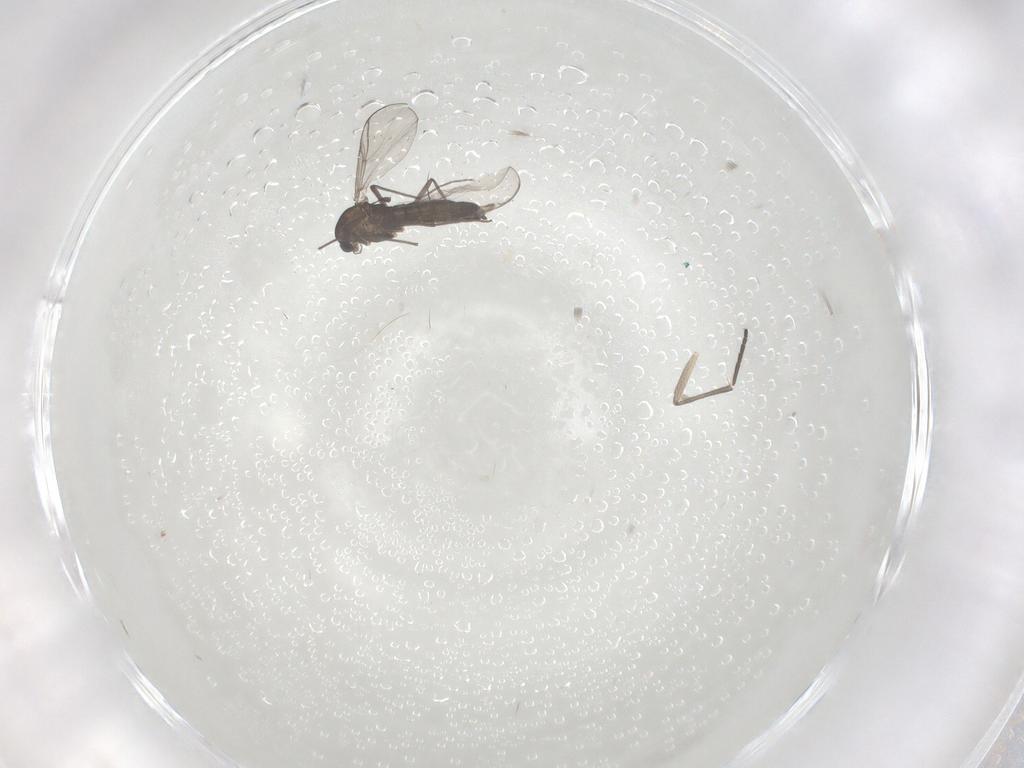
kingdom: Animalia
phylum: Arthropoda
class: Insecta
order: Diptera
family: Chironomidae
